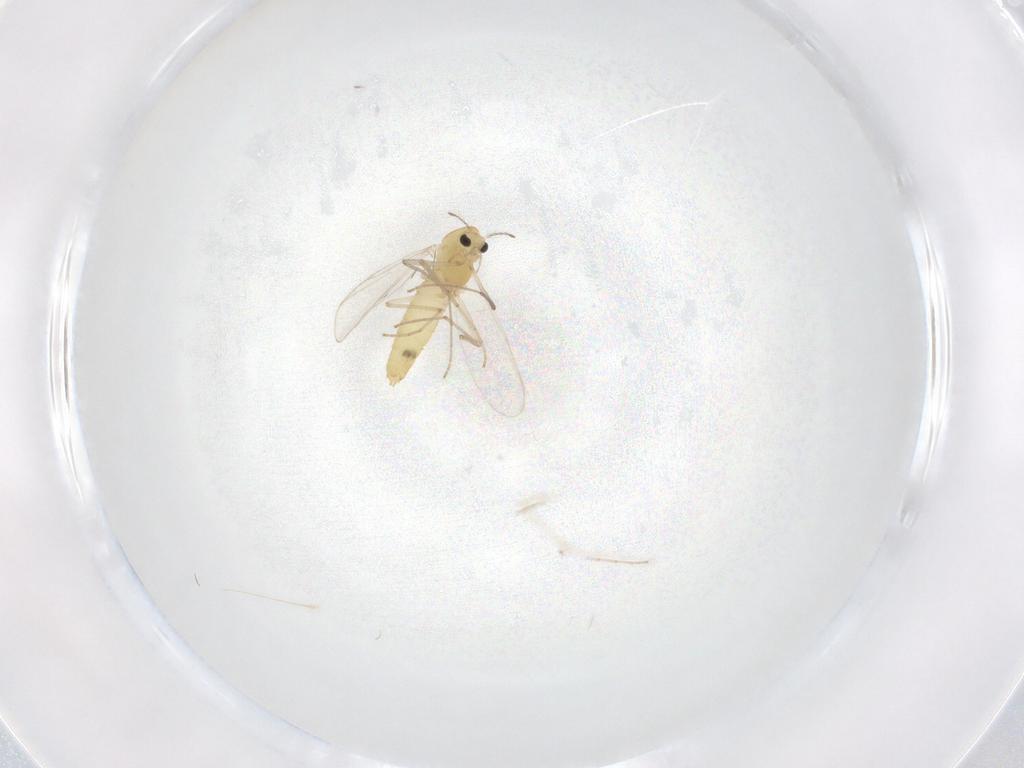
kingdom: Animalia
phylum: Arthropoda
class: Insecta
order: Diptera
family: Chironomidae
